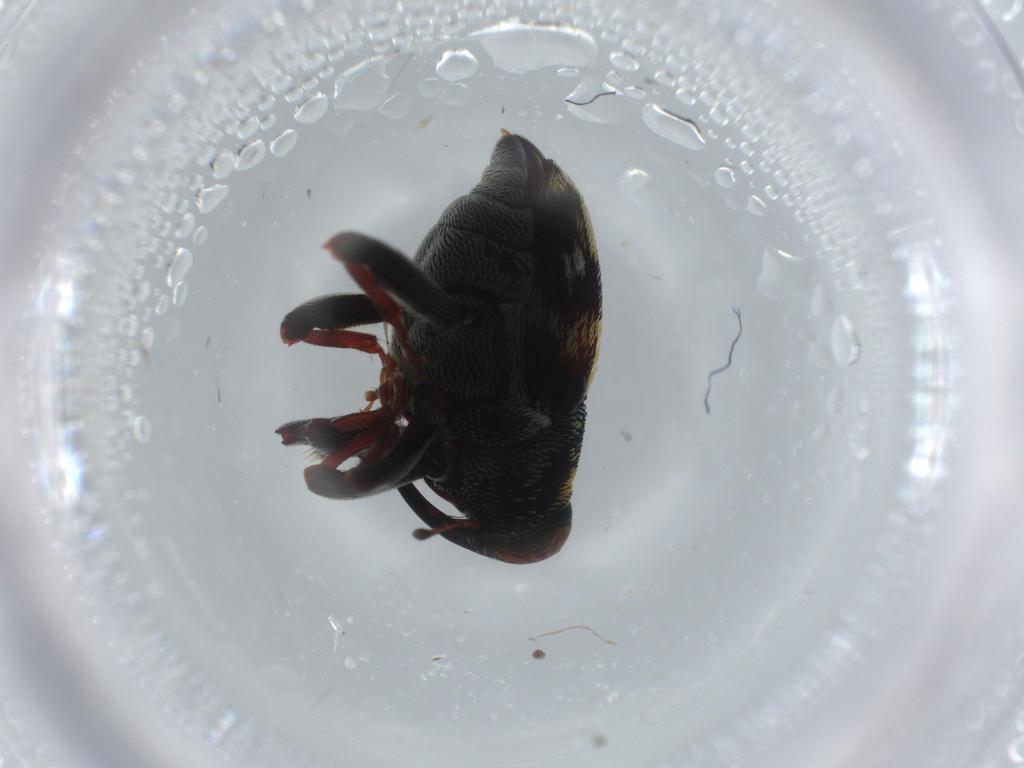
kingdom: Animalia
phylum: Arthropoda
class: Insecta
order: Coleoptera
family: Curculionidae
